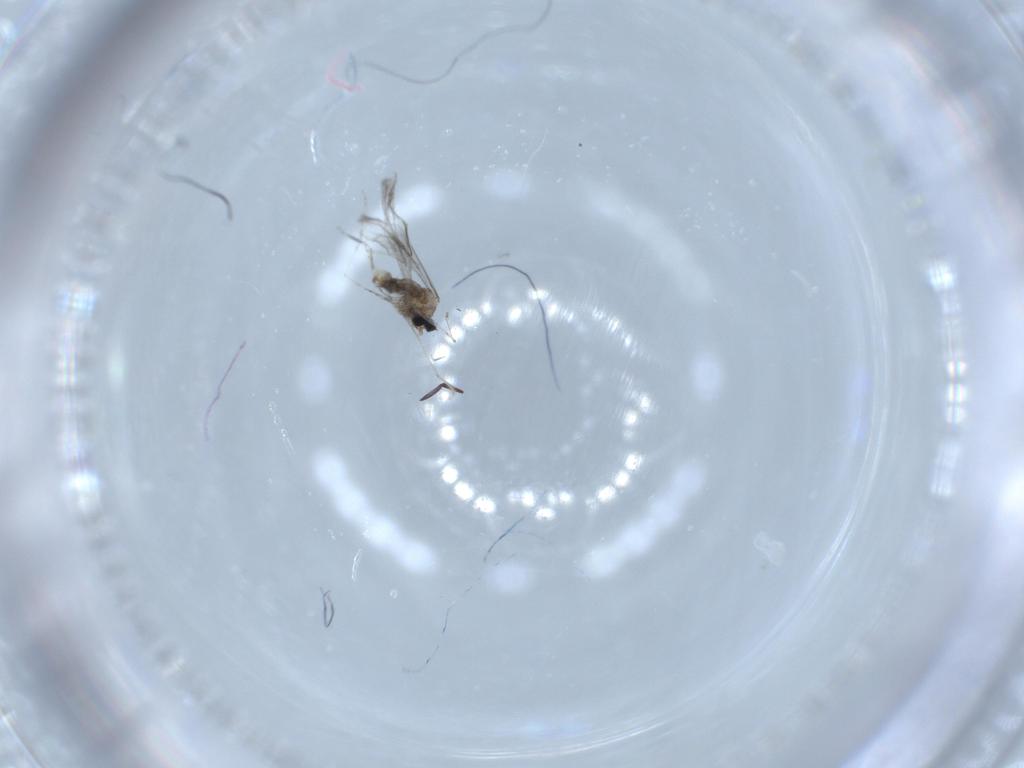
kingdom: Animalia
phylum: Arthropoda
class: Insecta
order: Diptera
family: Cecidomyiidae
